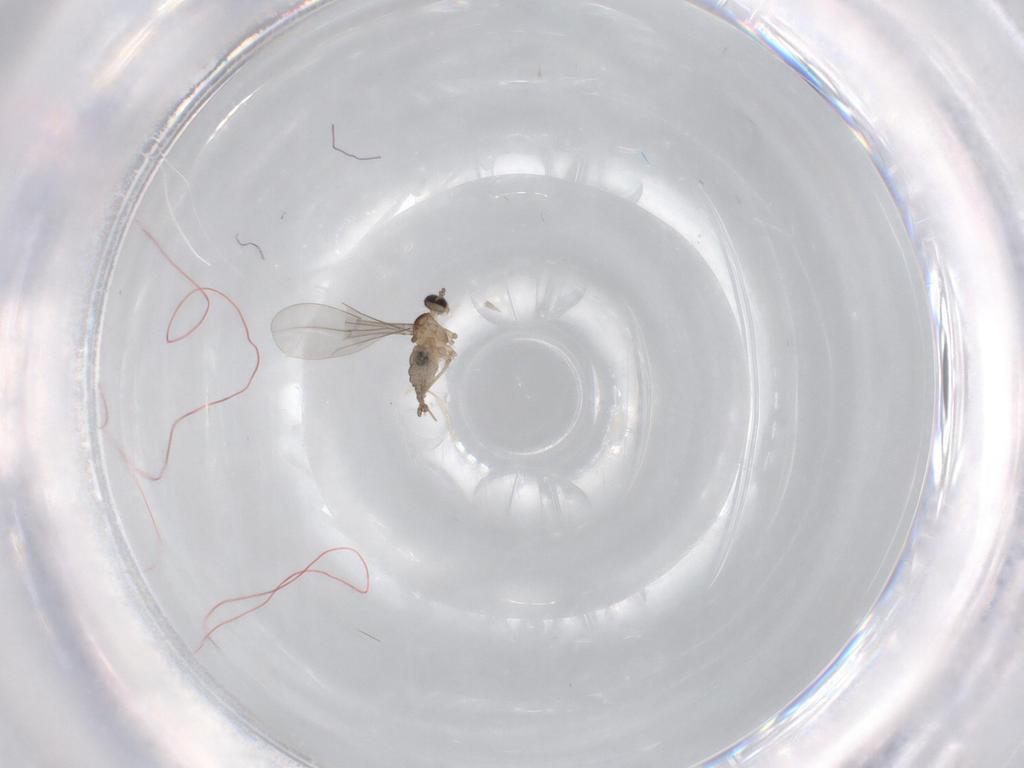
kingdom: Animalia
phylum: Arthropoda
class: Insecta
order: Diptera
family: Cecidomyiidae
